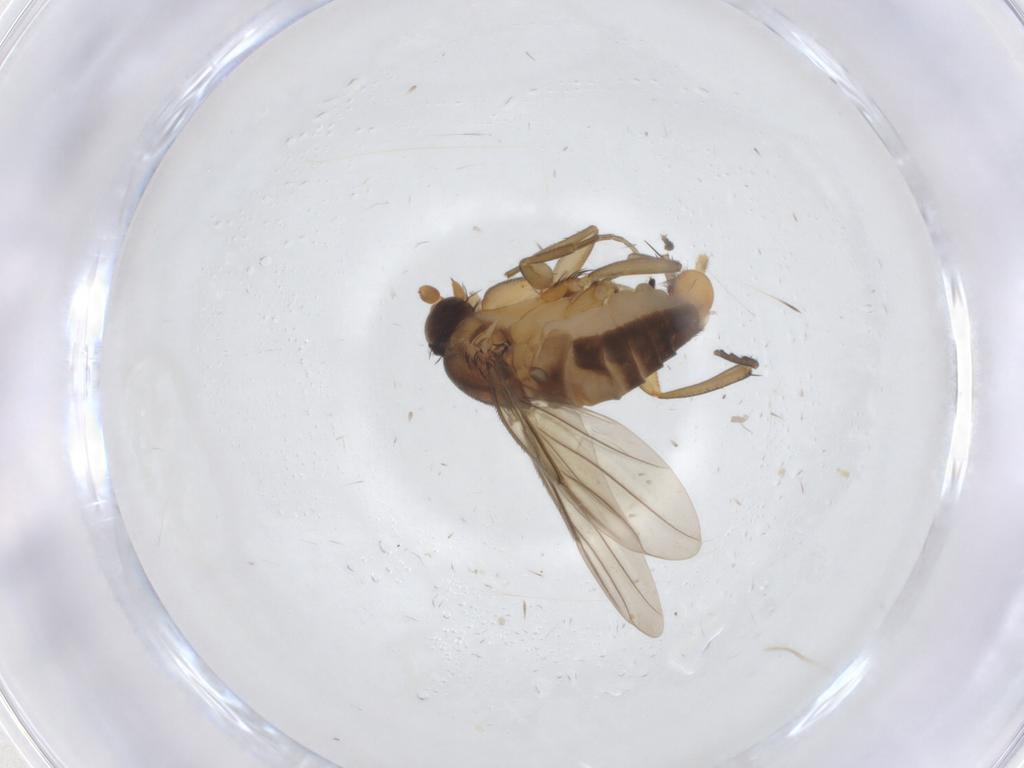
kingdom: Animalia
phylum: Arthropoda
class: Insecta
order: Diptera
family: Phoridae
